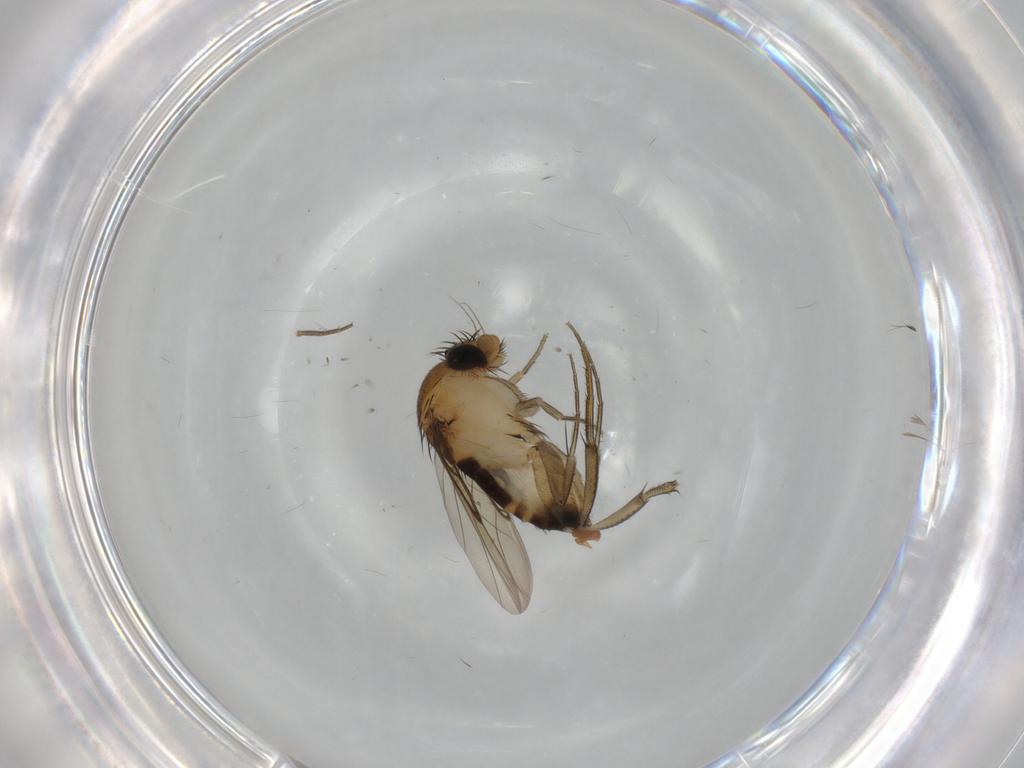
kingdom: Animalia
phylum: Arthropoda
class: Insecta
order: Diptera
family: Phoridae
